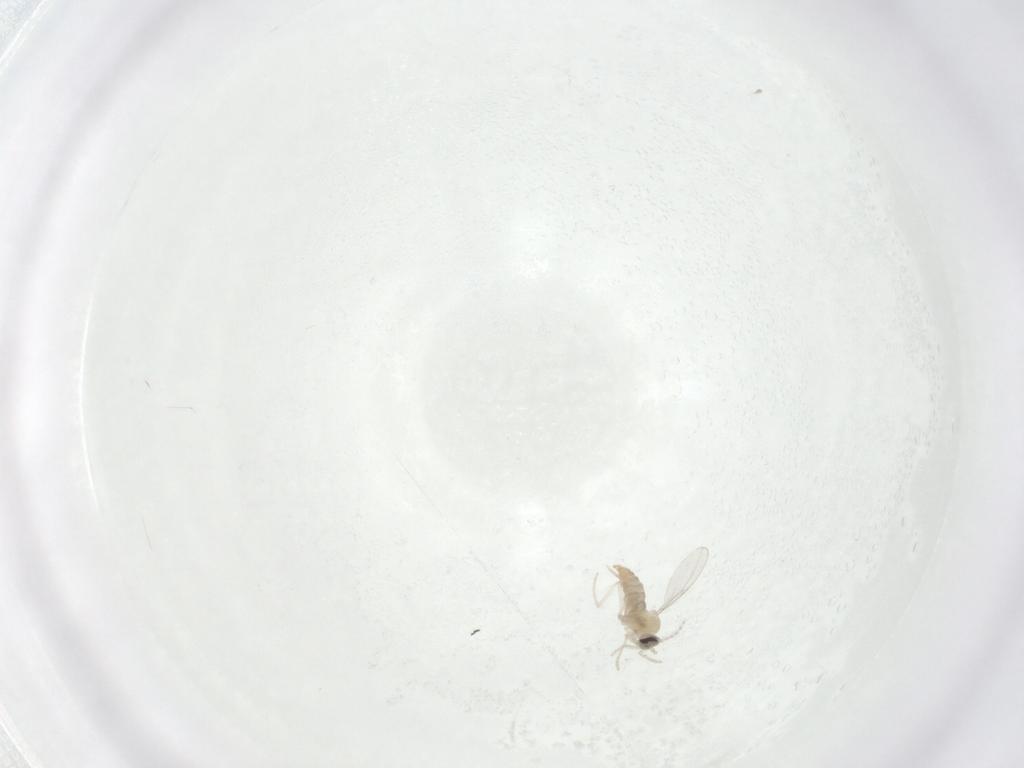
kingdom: Animalia
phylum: Arthropoda
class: Insecta
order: Diptera
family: Cecidomyiidae
